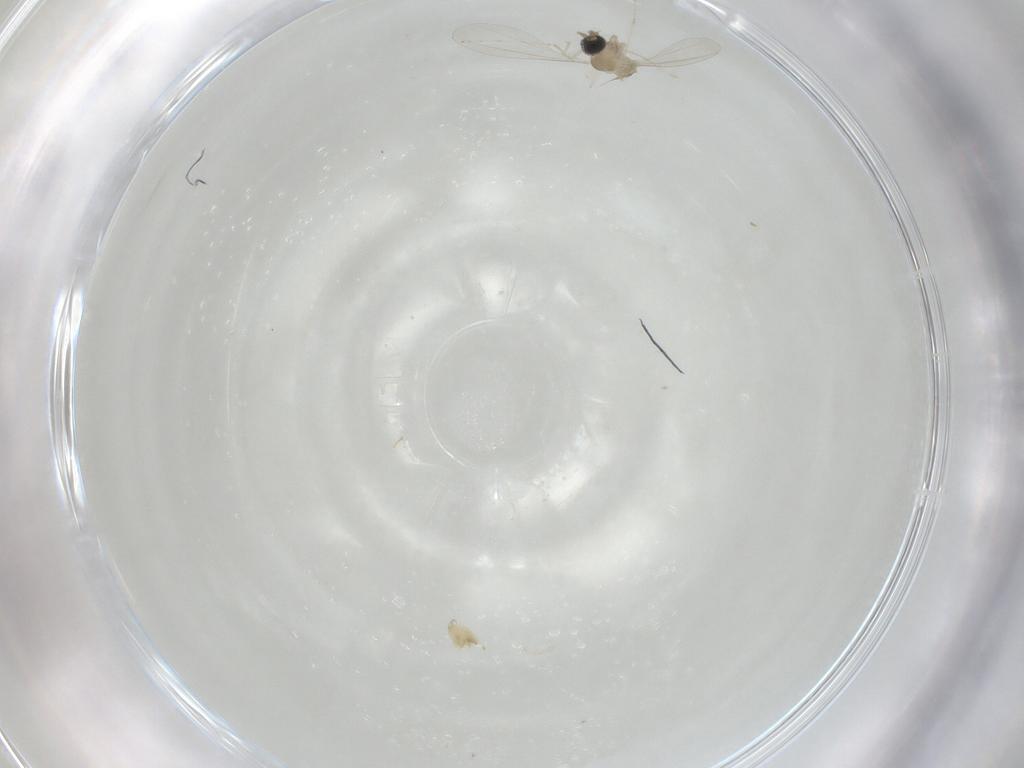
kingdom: Animalia
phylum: Arthropoda
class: Insecta
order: Diptera
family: Cecidomyiidae
